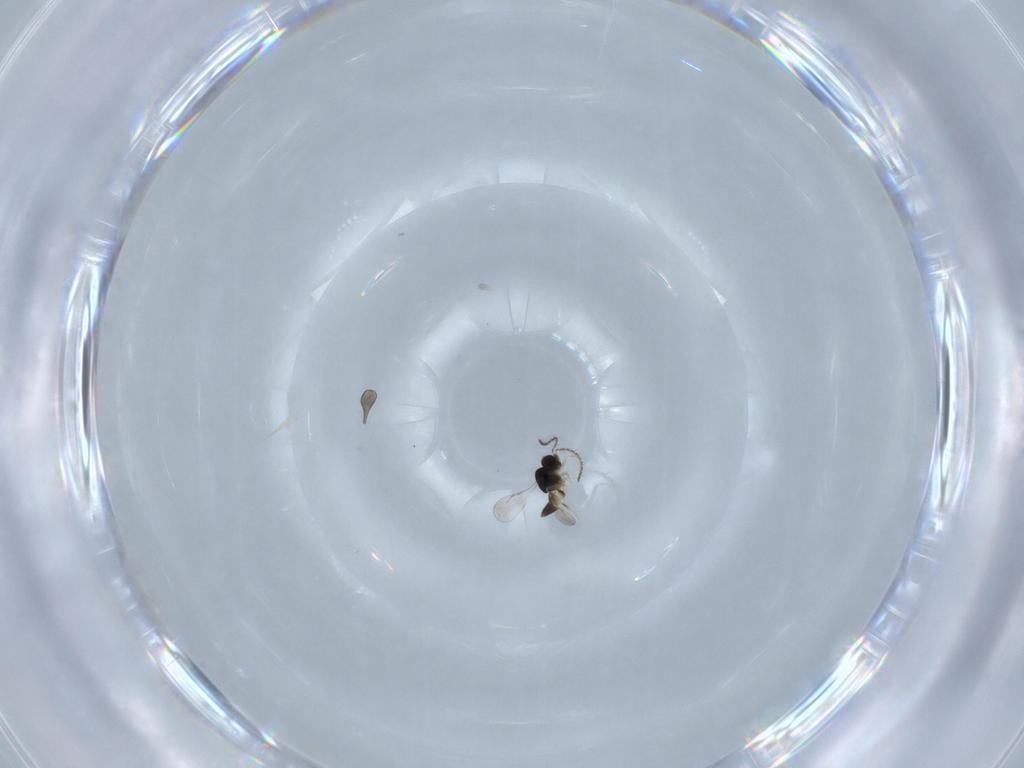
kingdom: Animalia
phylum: Arthropoda
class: Insecta
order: Hymenoptera
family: Ceraphronidae
